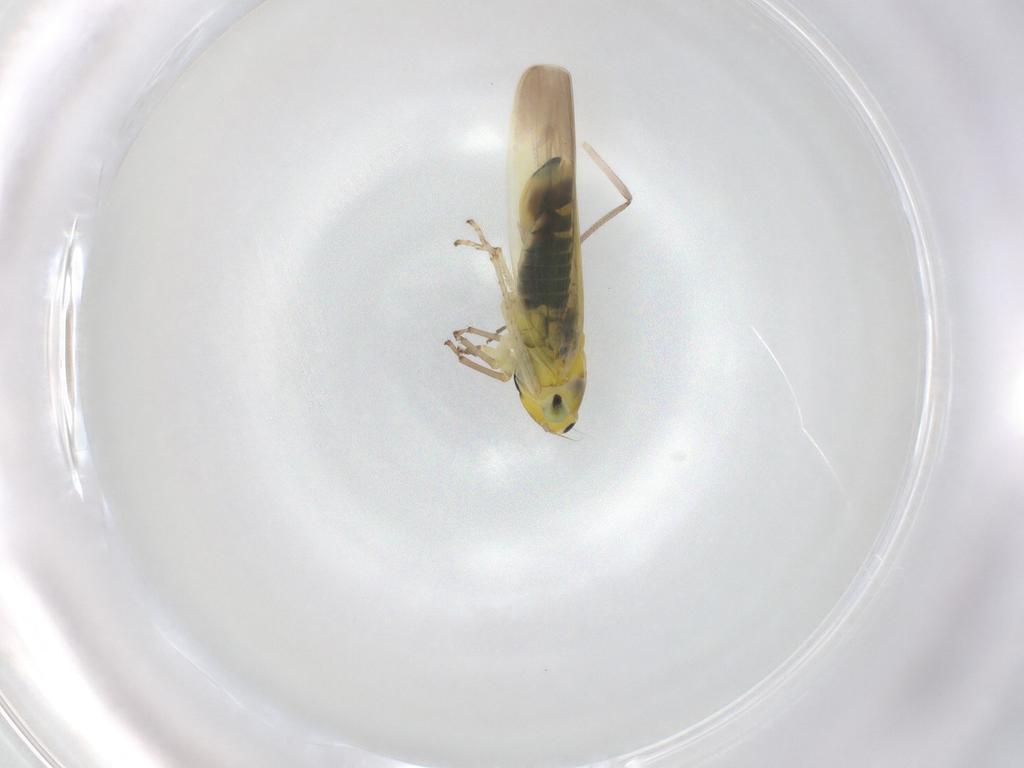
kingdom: Animalia
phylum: Arthropoda
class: Insecta
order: Hemiptera
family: Cicadellidae
